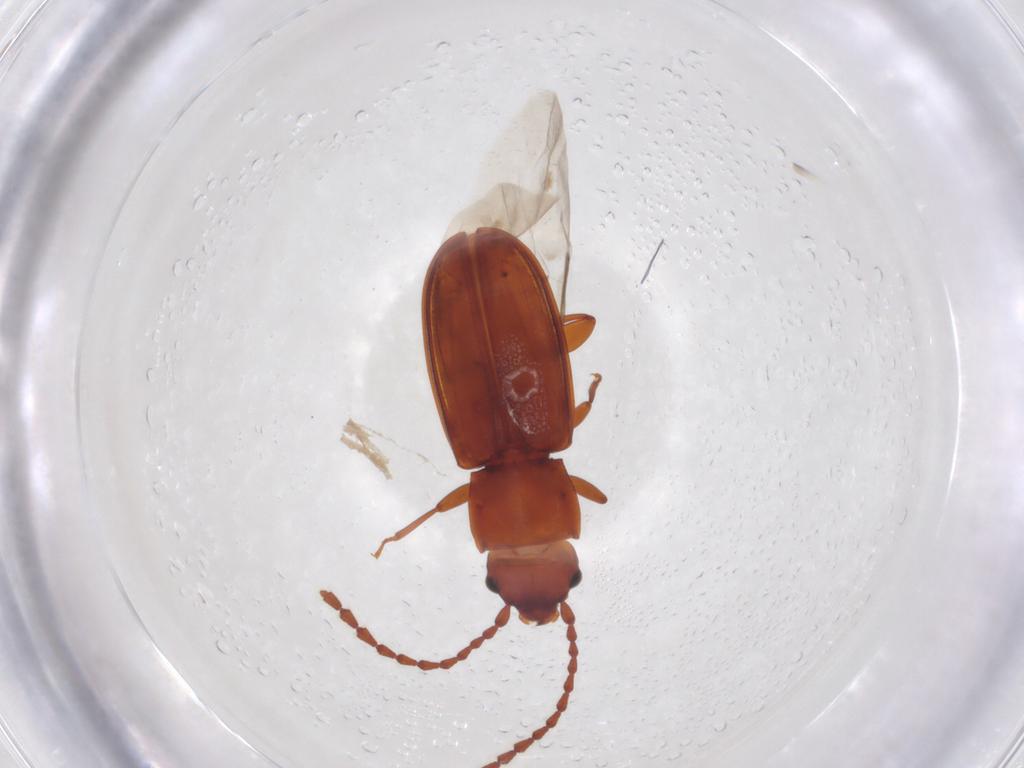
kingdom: Animalia
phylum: Arthropoda
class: Insecta
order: Coleoptera
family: Laemophloeidae
